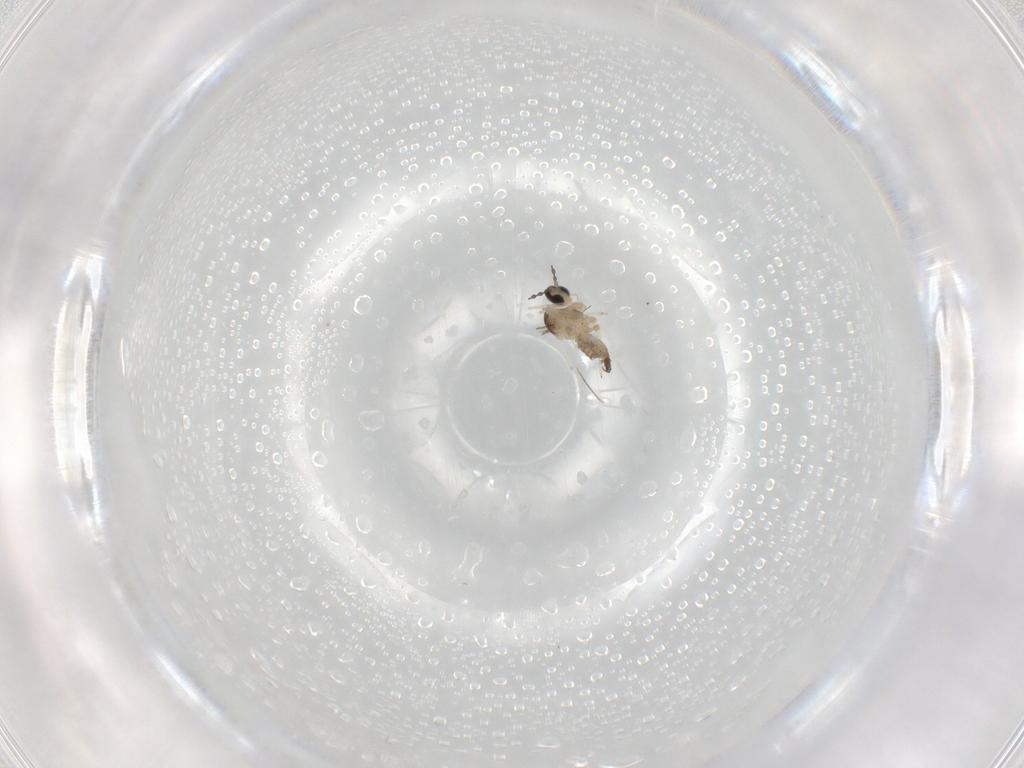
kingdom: Animalia
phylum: Arthropoda
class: Insecta
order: Diptera
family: Cecidomyiidae
